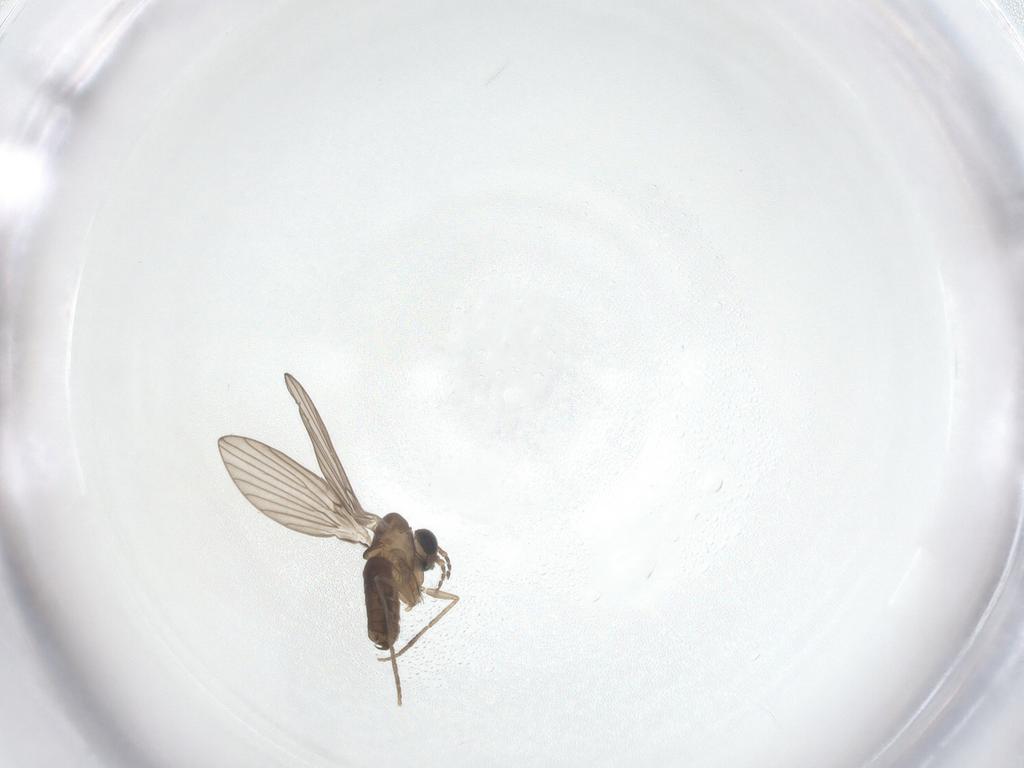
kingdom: Animalia
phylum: Arthropoda
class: Insecta
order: Diptera
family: Psychodidae
